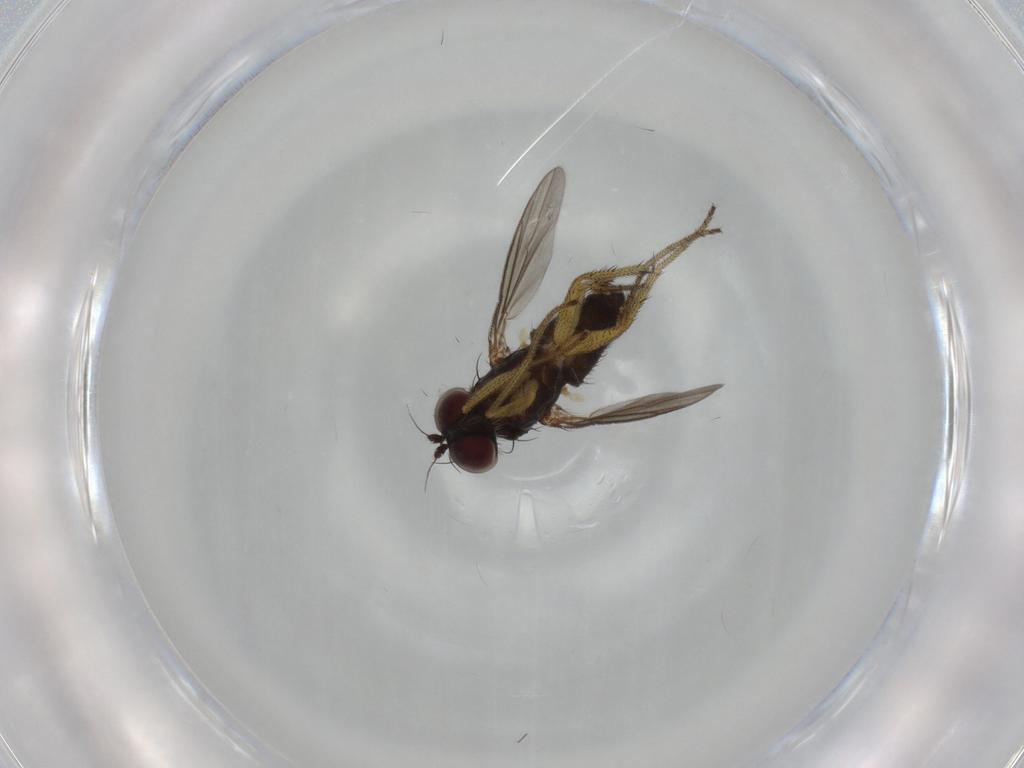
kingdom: Animalia
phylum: Arthropoda
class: Insecta
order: Diptera
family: Dolichopodidae
